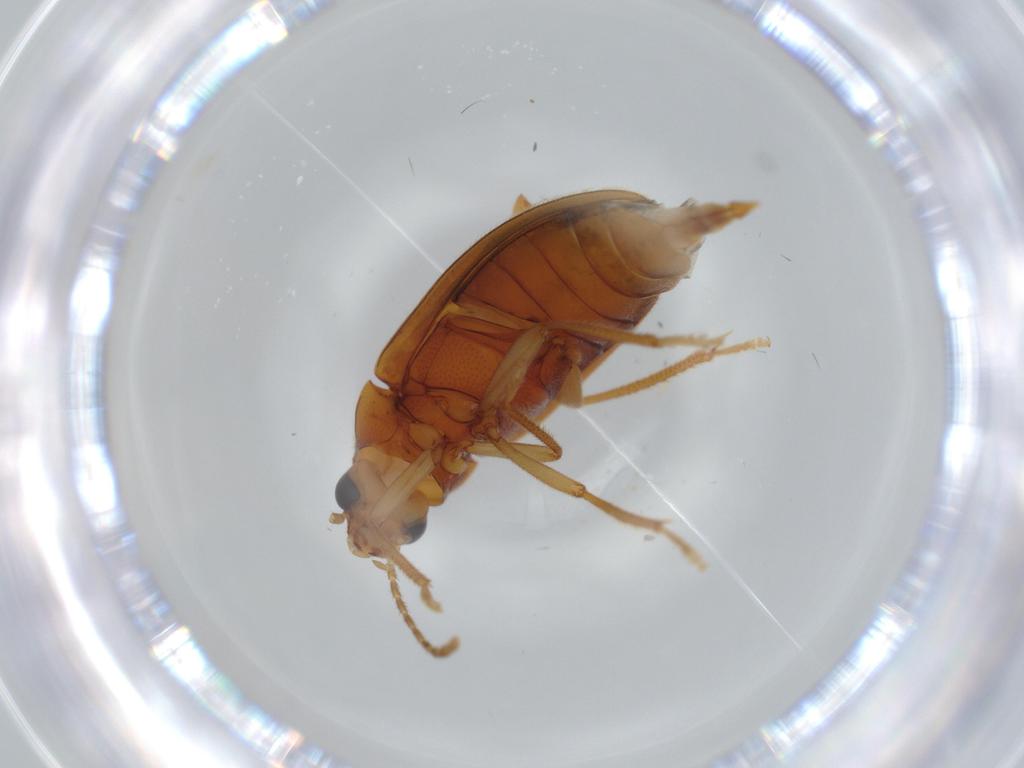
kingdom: Animalia
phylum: Arthropoda
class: Insecta
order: Coleoptera
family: Ptilodactylidae
